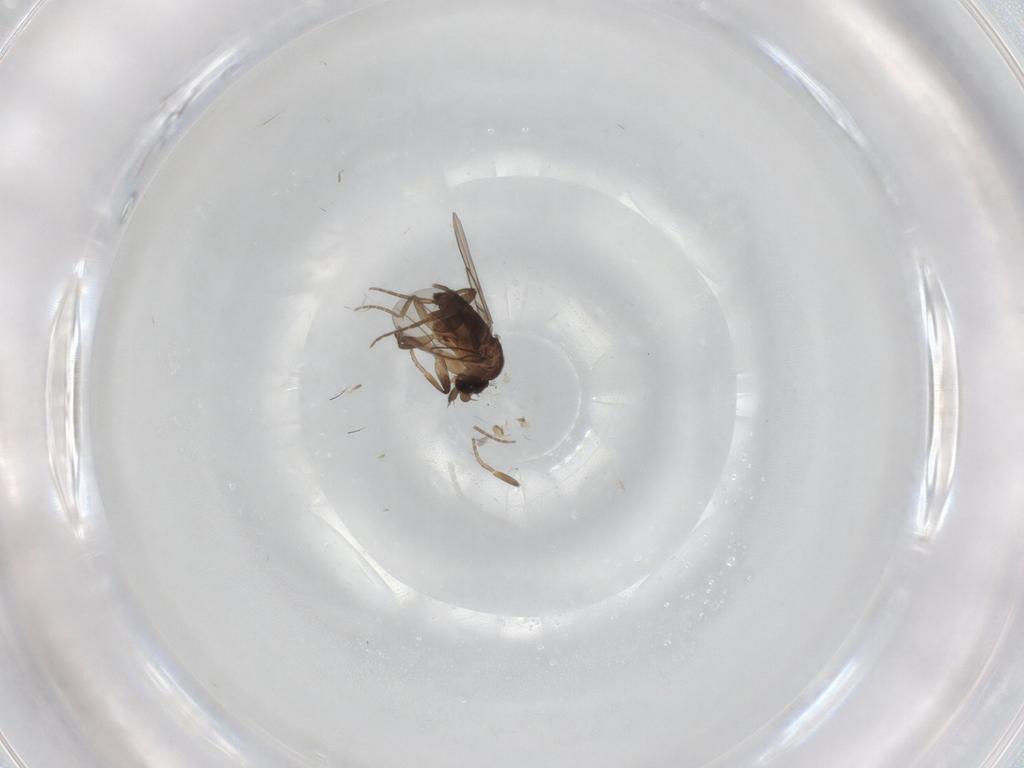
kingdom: Animalia
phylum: Arthropoda
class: Insecta
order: Diptera
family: Phoridae
